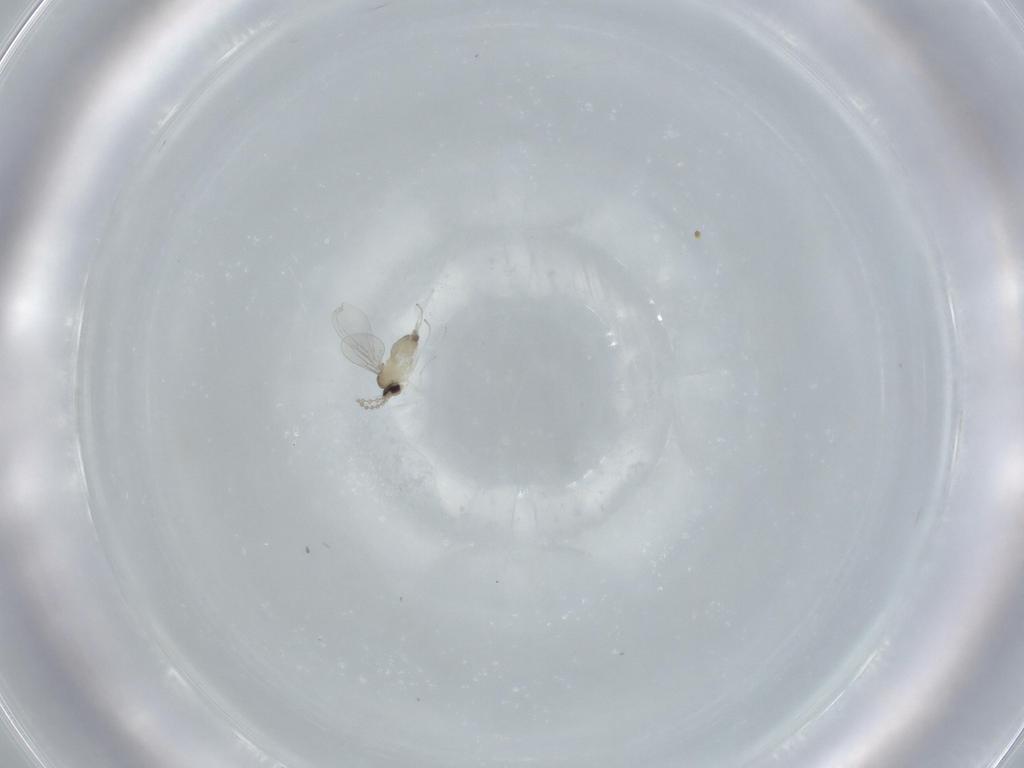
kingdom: Animalia
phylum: Arthropoda
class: Insecta
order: Diptera
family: Cecidomyiidae
